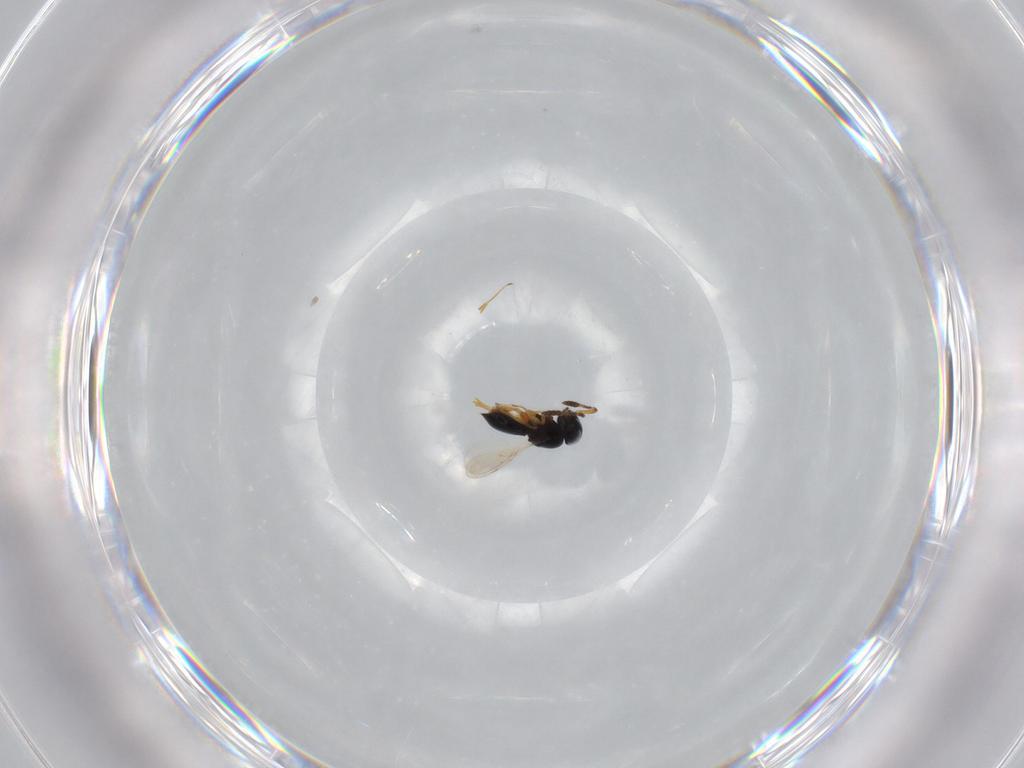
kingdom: Animalia
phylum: Arthropoda
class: Insecta
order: Hymenoptera
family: Scelionidae
